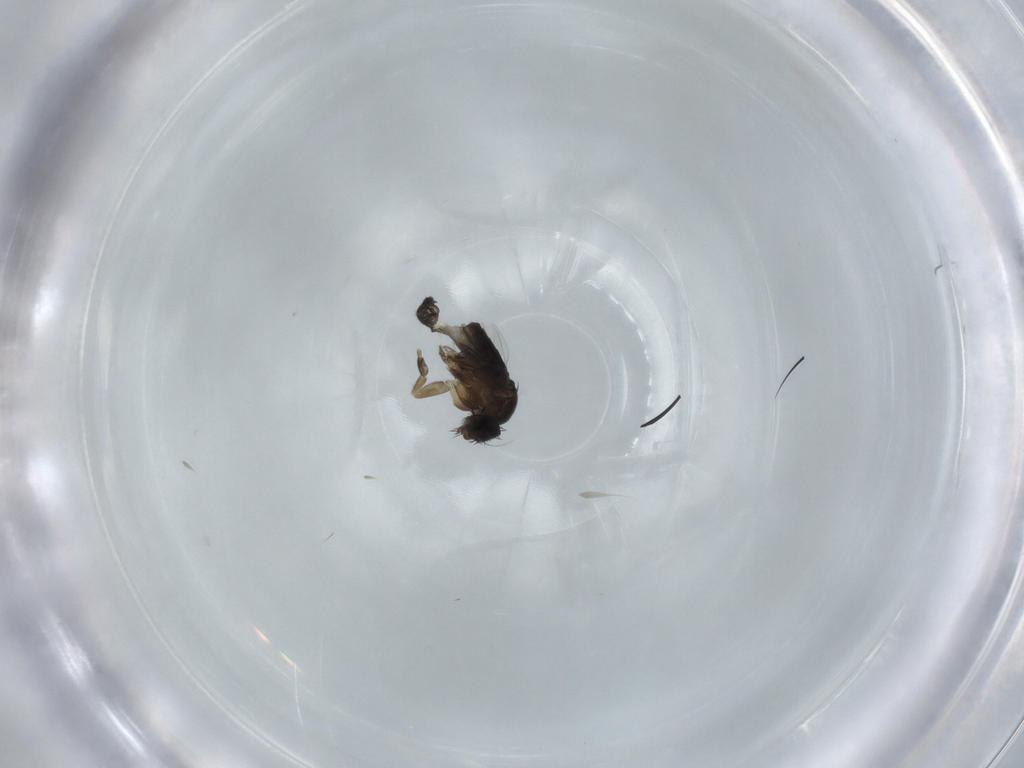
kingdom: Animalia
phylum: Arthropoda
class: Insecta
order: Diptera
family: Phoridae
